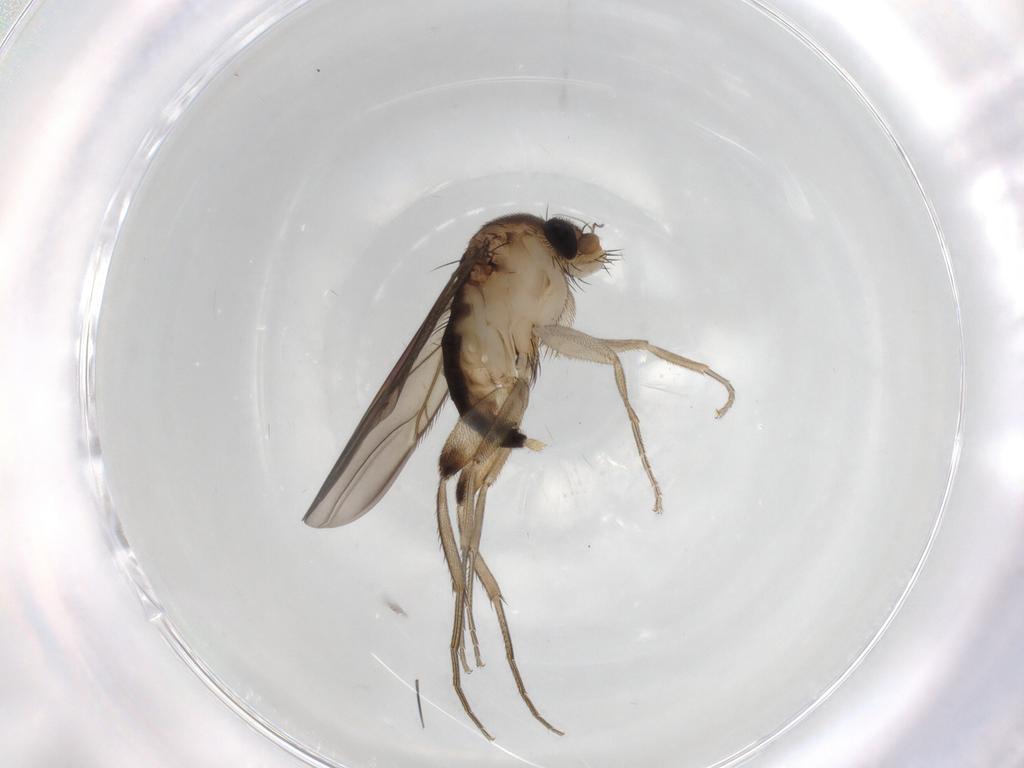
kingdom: Animalia
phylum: Arthropoda
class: Insecta
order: Diptera
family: Phoridae
